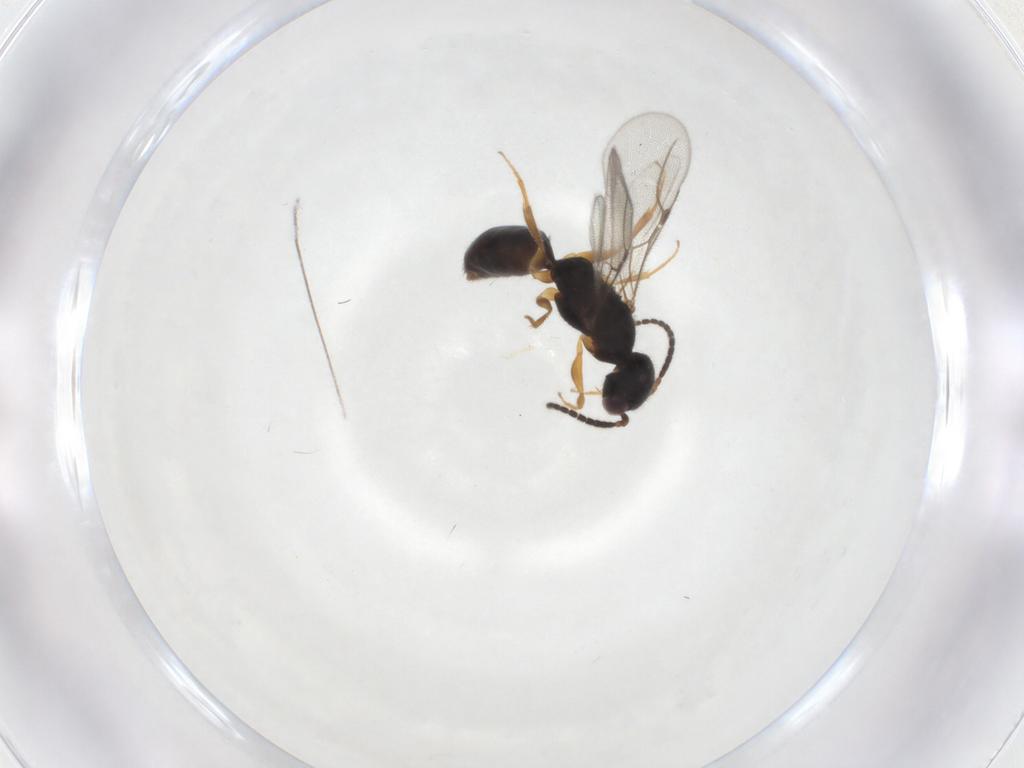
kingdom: Animalia
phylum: Arthropoda
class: Insecta
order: Hymenoptera
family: Bethylidae
